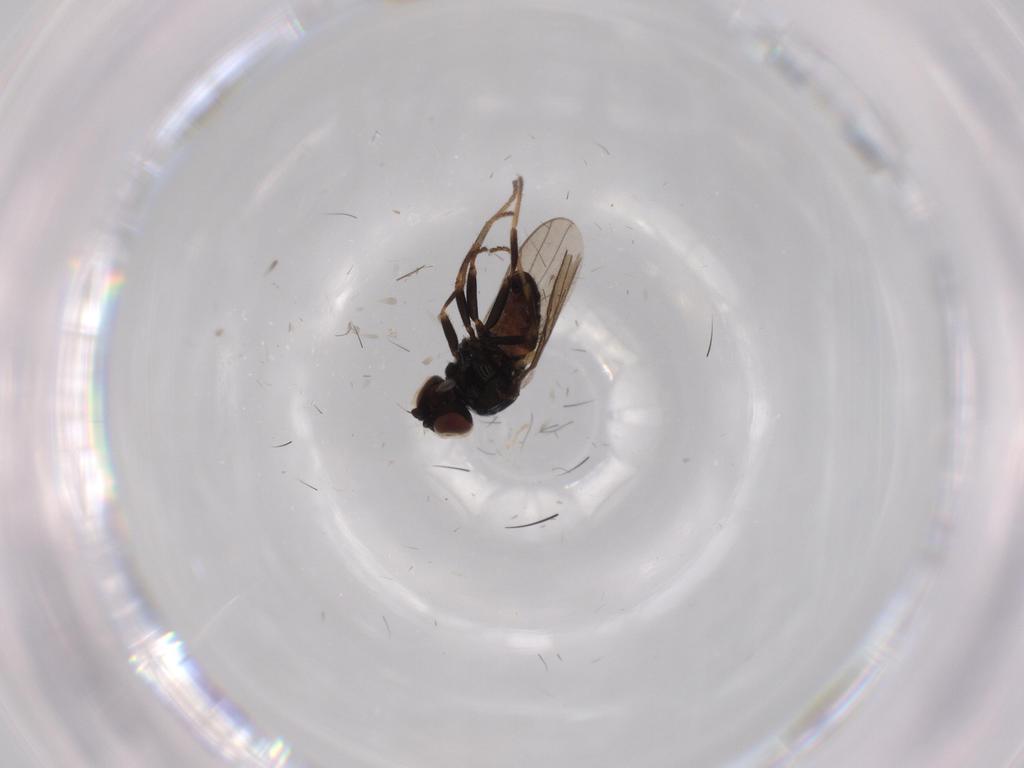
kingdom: Animalia
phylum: Arthropoda
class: Insecta
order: Diptera
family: Chloropidae
